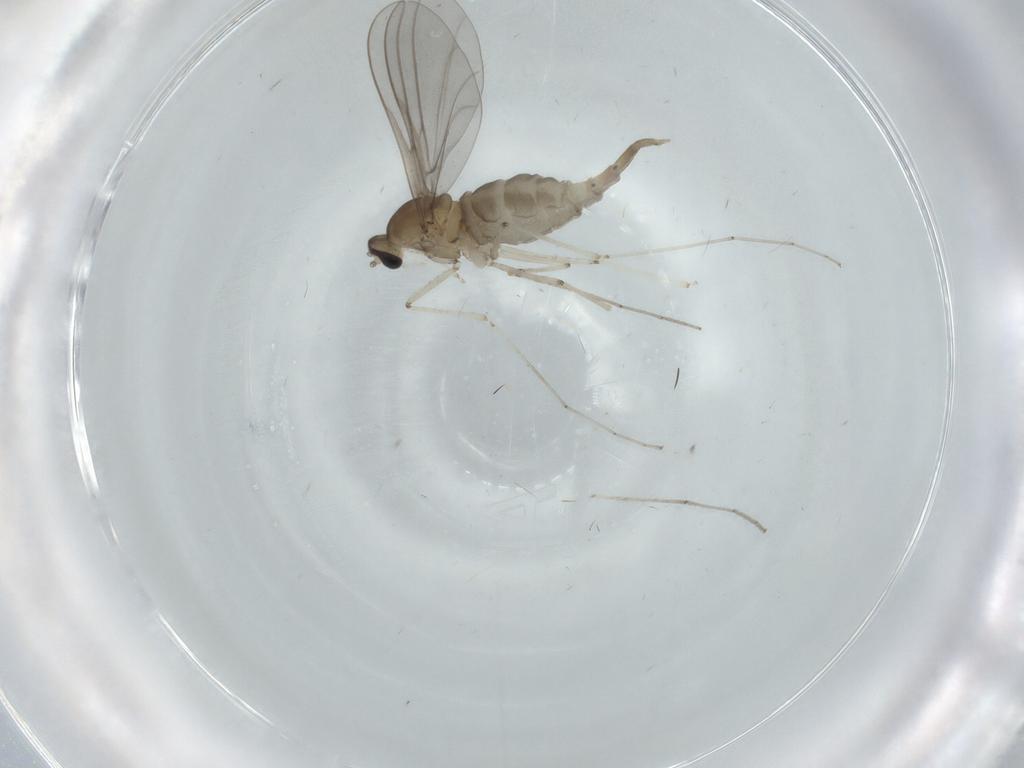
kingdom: Animalia
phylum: Arthropoda
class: Insecta
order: Diptera
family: Cecidomyiidae
